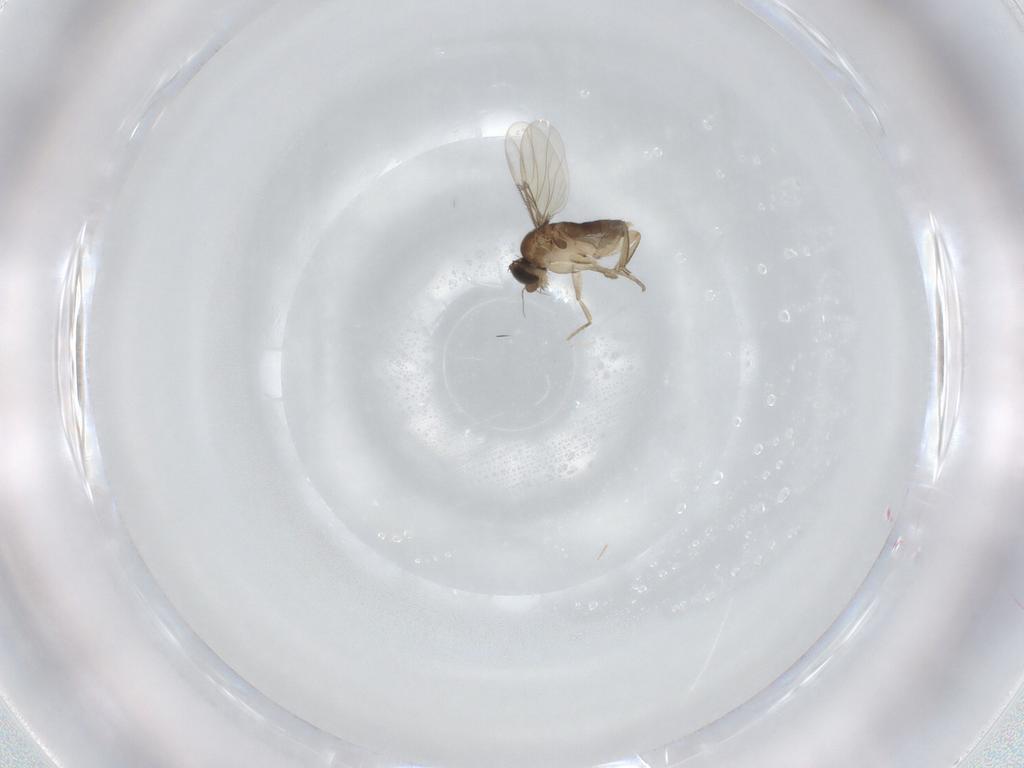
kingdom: Animalia
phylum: Arthropoda
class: Insecta
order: Diptera
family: Phoridae
